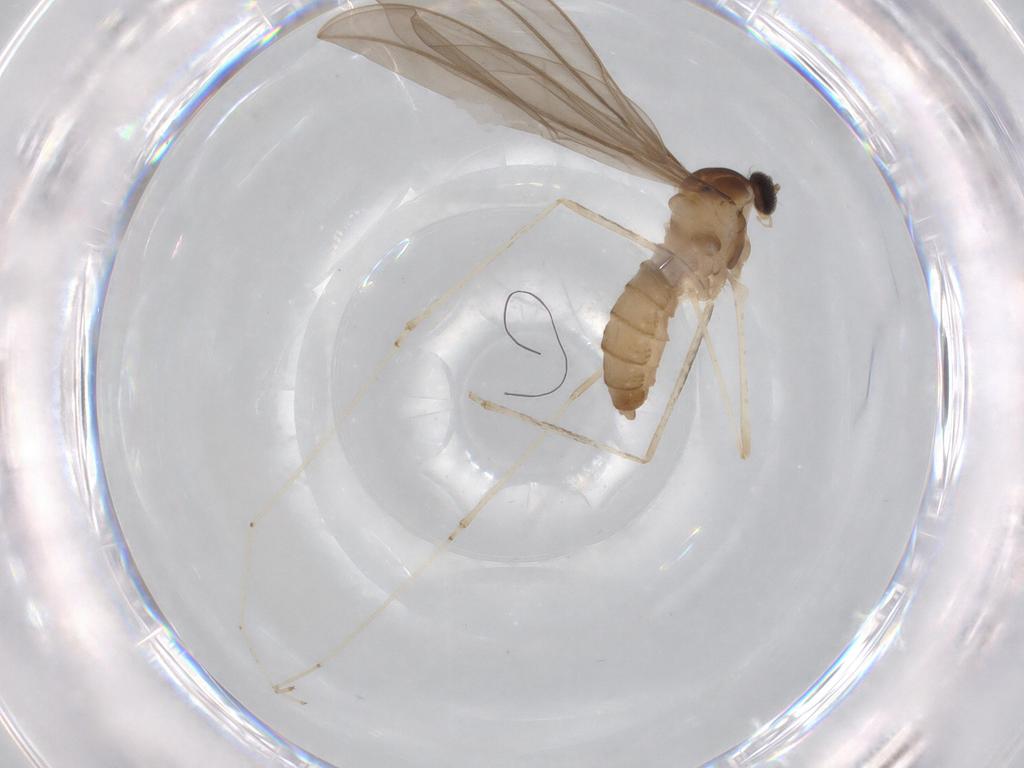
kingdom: Animalia
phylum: Arthropoda
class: Insecta
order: Diptera
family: Cecidomyiidae
